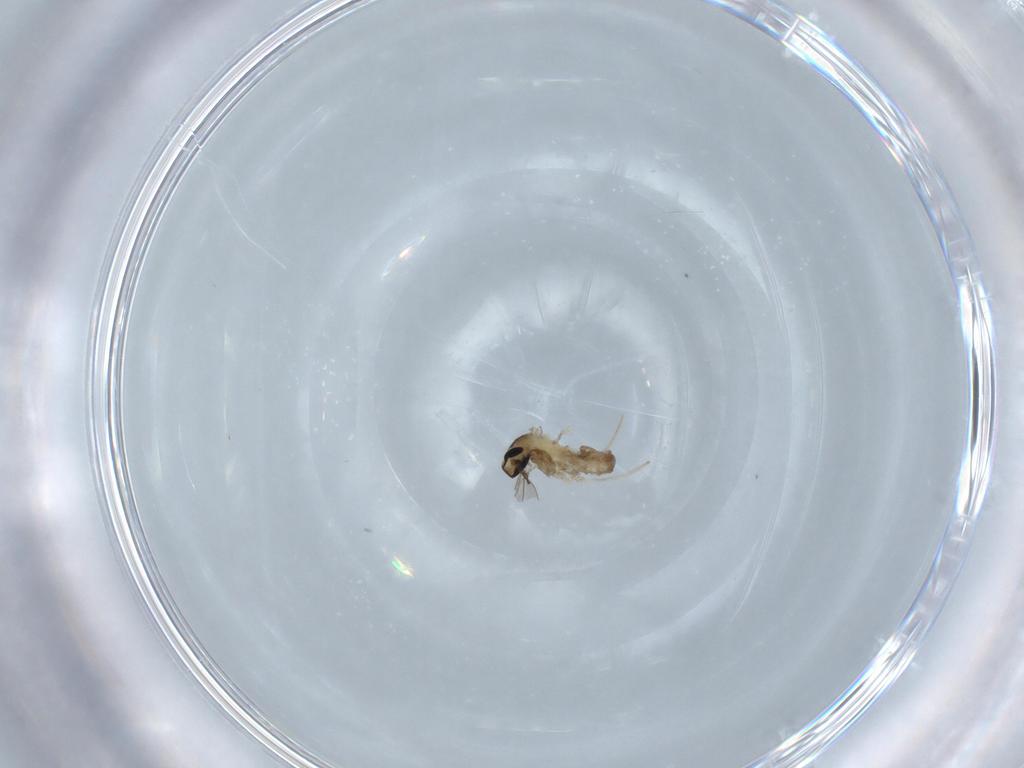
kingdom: Animalia
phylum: Arthropoda
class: Insecta
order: Diptera
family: Cecidomyiidae
